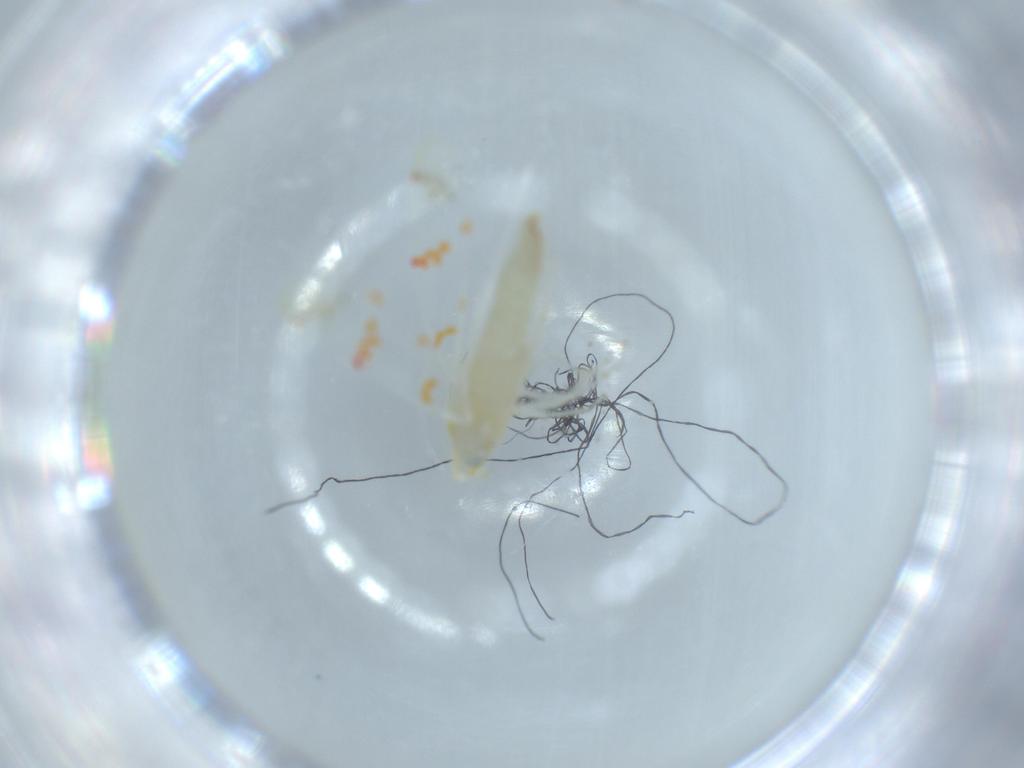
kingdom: Animalia
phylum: Arthropoda
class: Insecta
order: Hemiptera
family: Cicadellidae
